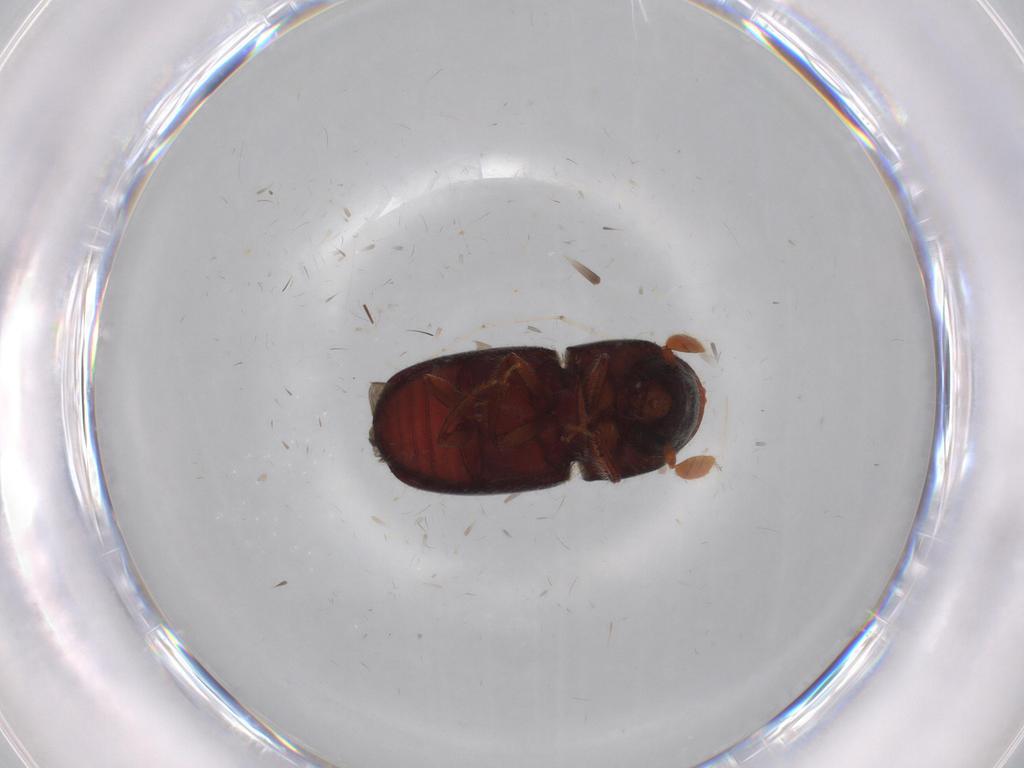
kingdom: Animalia
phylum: Arthropoda
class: Insecta
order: Coleoptera
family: Curculionidae
